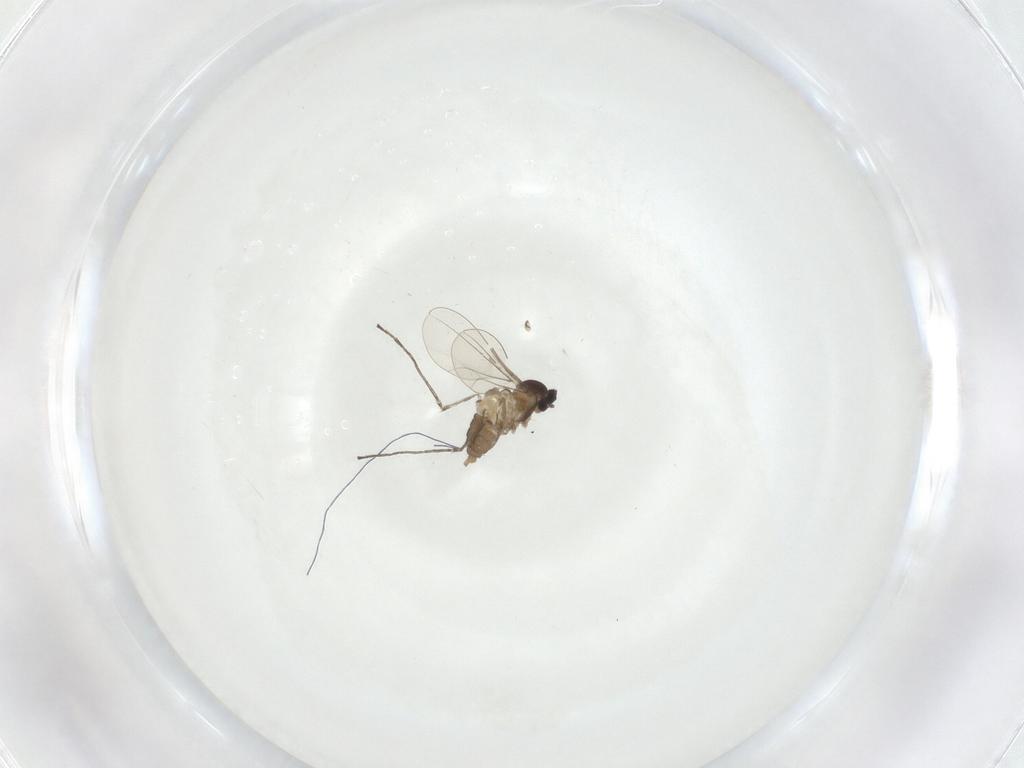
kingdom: Animalia
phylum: Arthropoda
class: Insecta
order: Diptera
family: Cecidomyiidae
